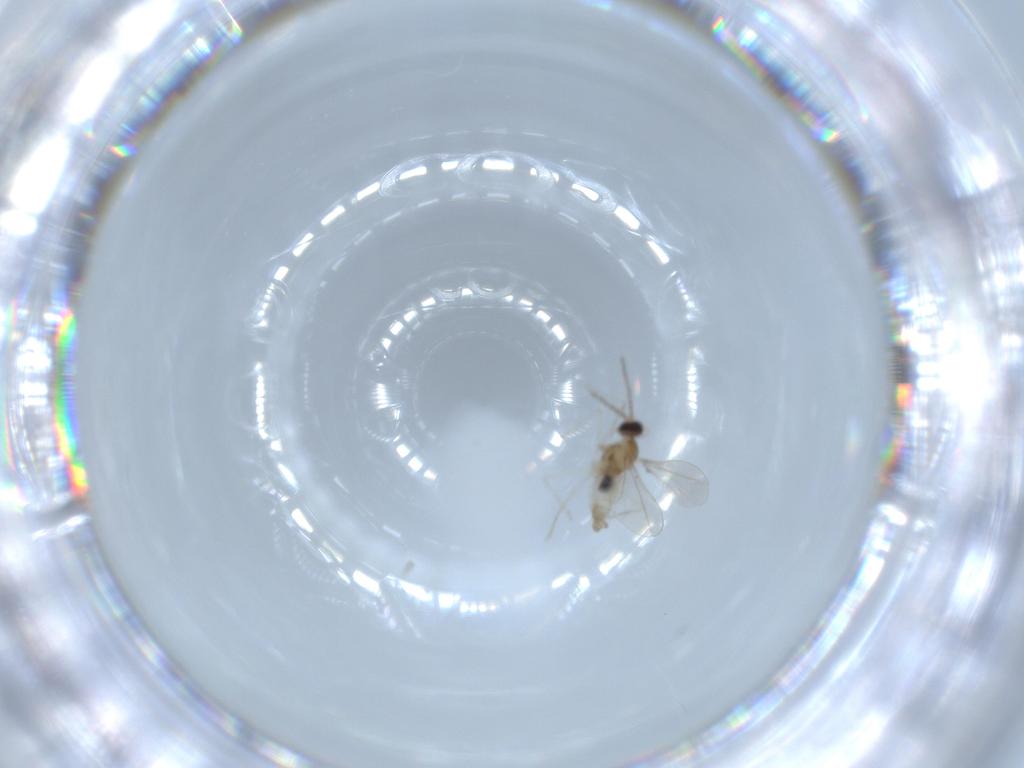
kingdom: Animalia
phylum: Arthropoda
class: Insecta
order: Diptera
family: Cecidomyiidae
